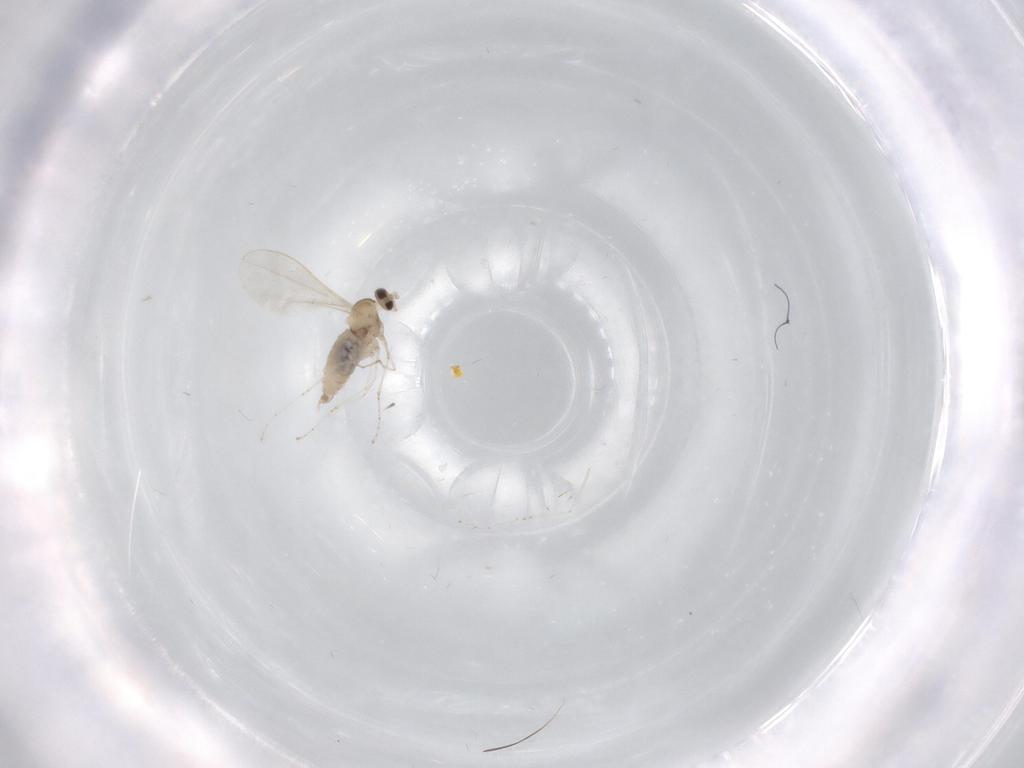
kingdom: Animalia
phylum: Arthropoda
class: Insecta
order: Diptera
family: Cecidomyiidae
